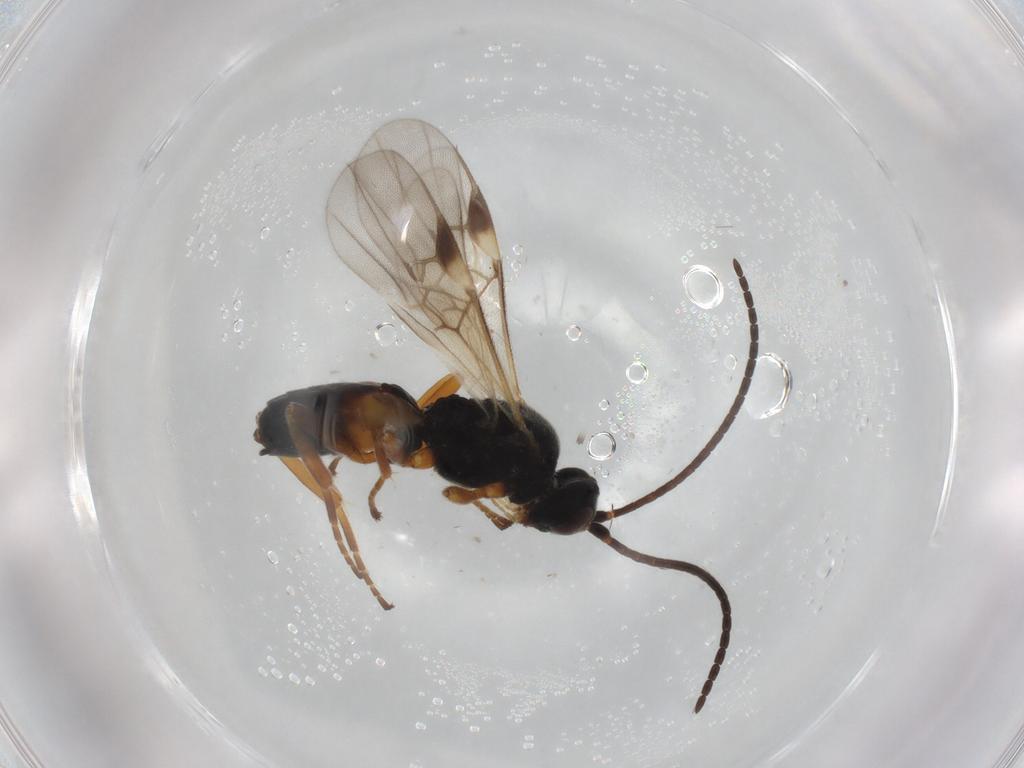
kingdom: Animalia
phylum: Arthropoda
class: Insecta
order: Hymenoptera
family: Braconidae
